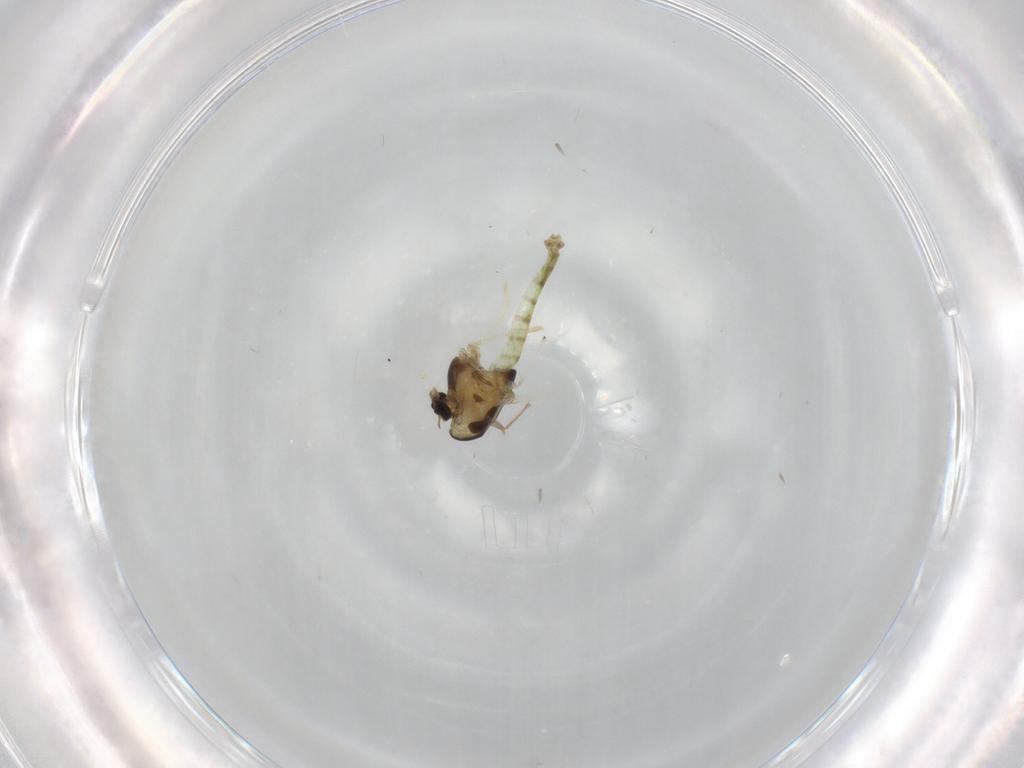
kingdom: Animalia
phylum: Arthropoda
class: Insecta
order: Diptera
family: Chironomidae
